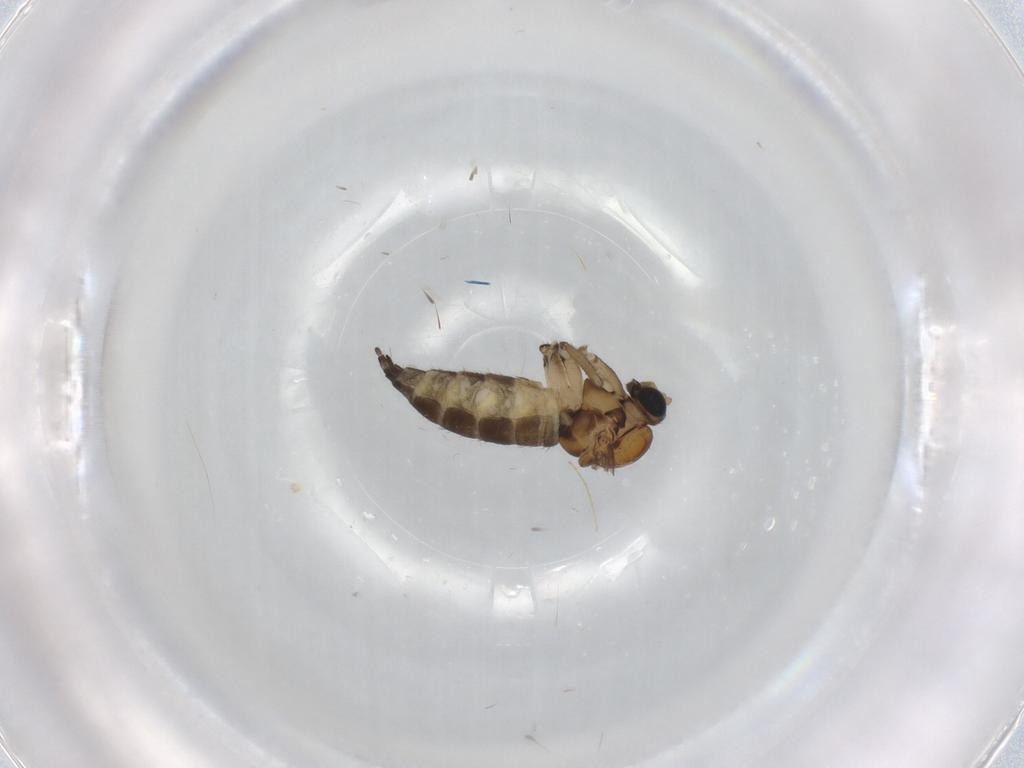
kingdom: Animalia
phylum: Arthropoda
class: Insecta
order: Diptera
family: Sciaridae
